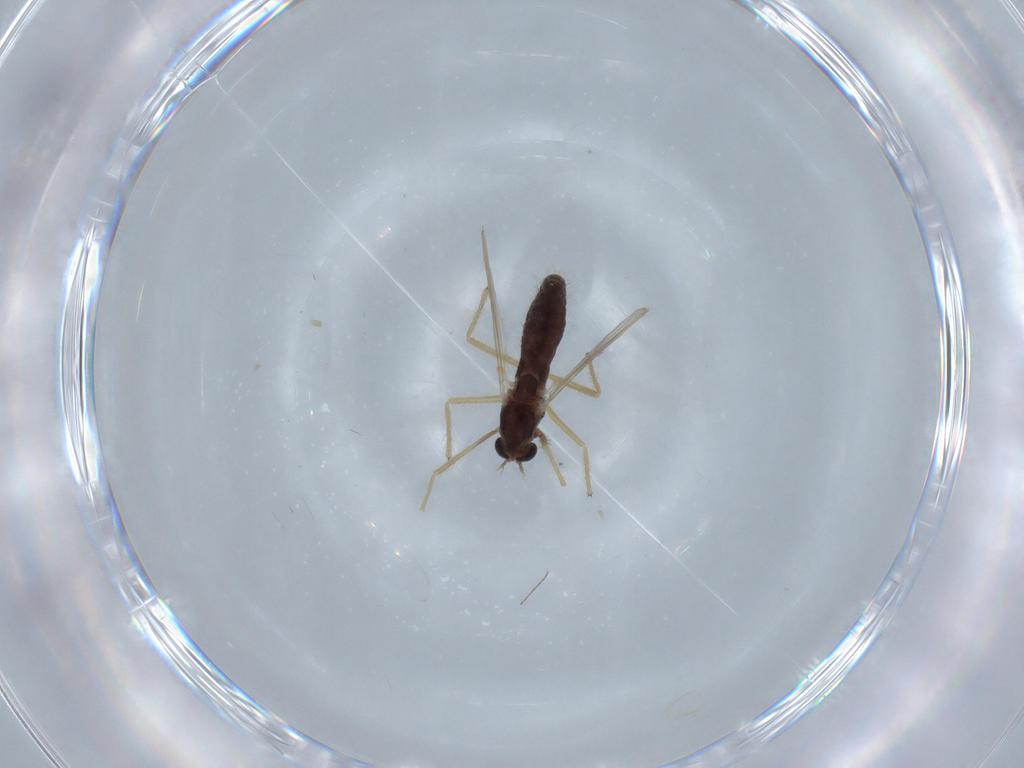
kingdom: Animalia
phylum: Arthropoda
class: Insecta
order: Diptera
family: Chironomidae
